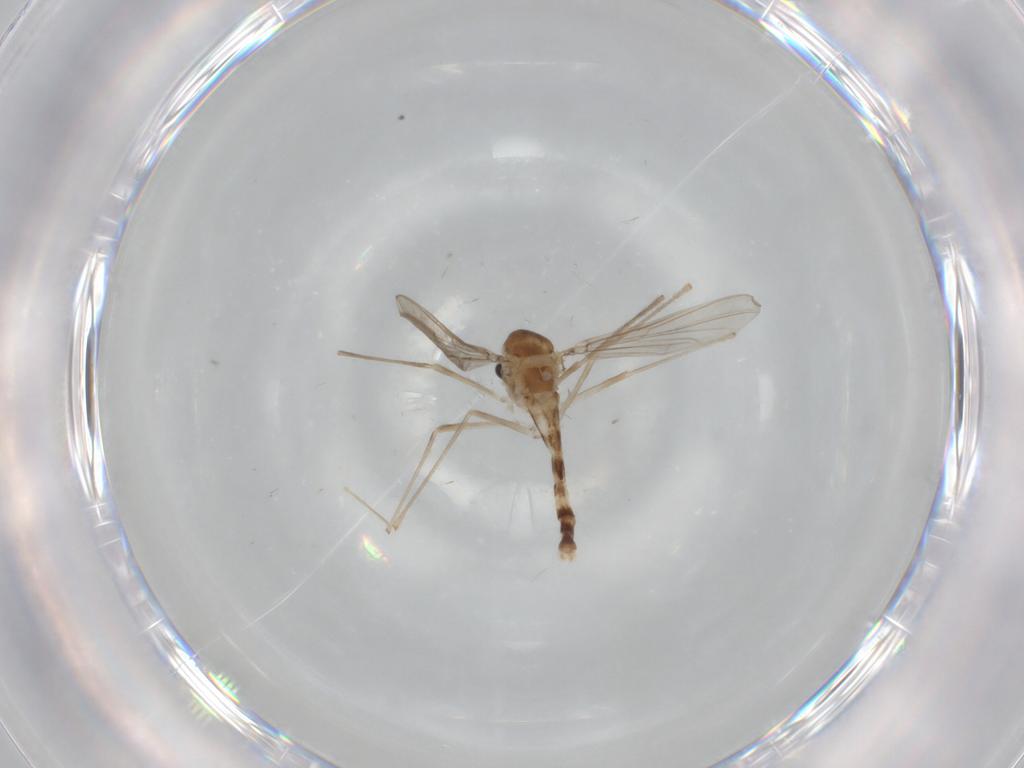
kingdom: Animalia
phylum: Arthropoda
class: Insecta
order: Diptera
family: Chironomidae
